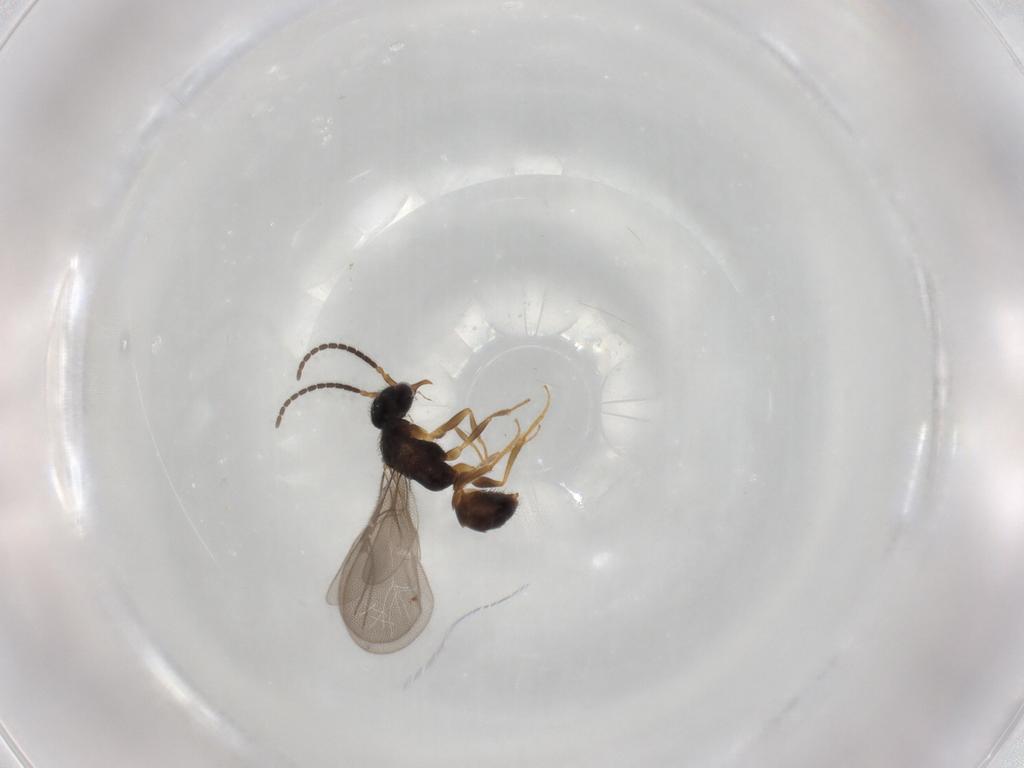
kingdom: Animalia
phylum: Arthropoda
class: Insecta
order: Hymenoptera
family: Bethylidae
